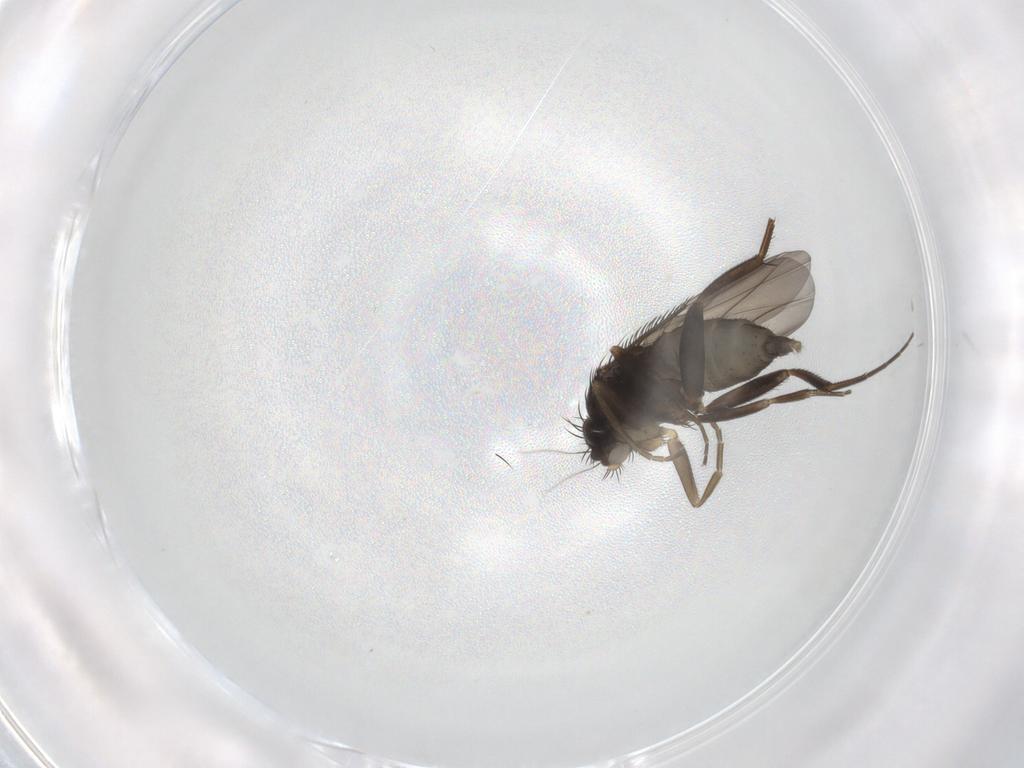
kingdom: Animalia
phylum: Arthropoda
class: Insecta
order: Diptera
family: Phoridae
